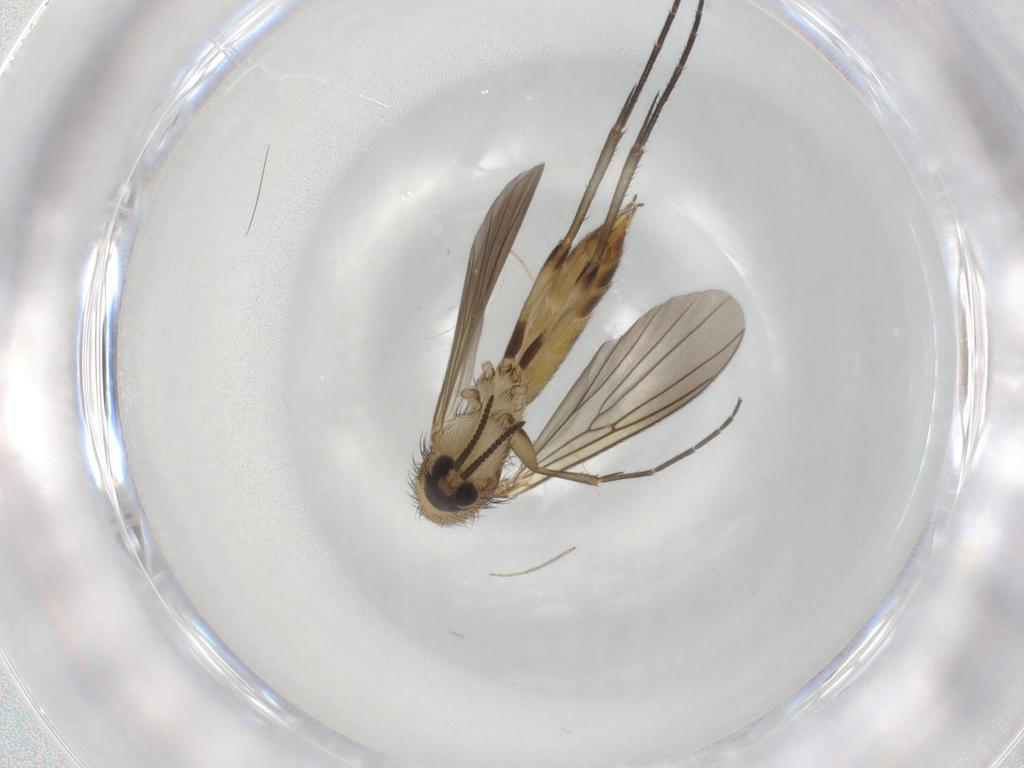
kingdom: Animalia
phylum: Arthropoda
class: Insecta
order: Diptera
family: Mycetophilidae
